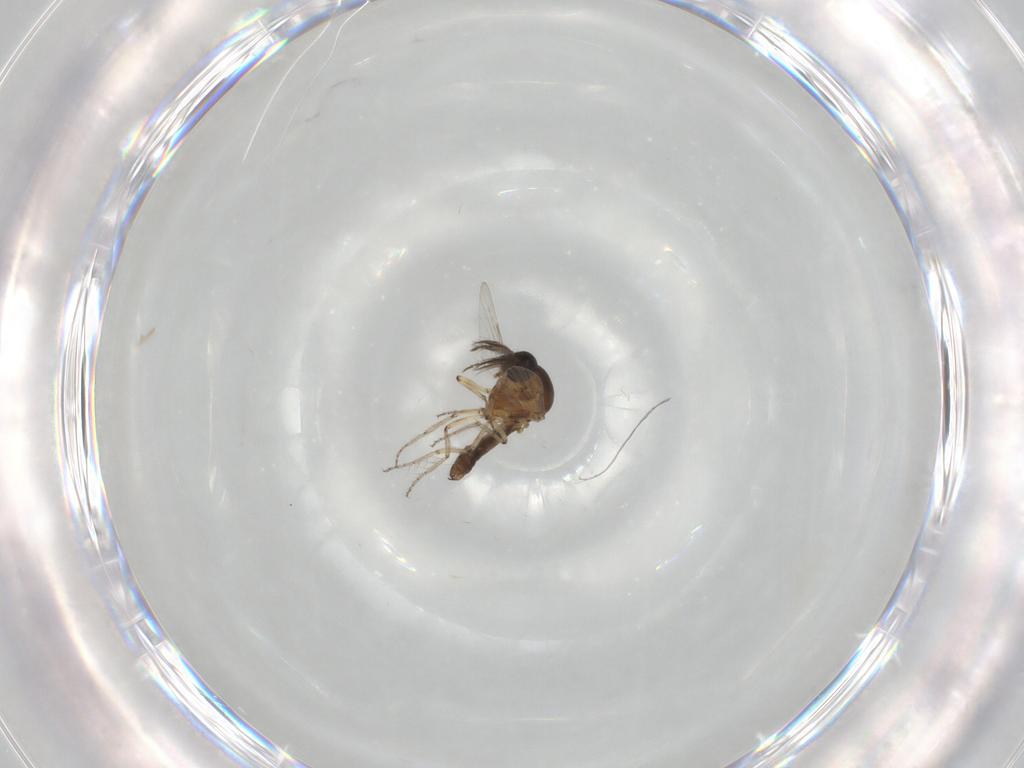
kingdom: Animalia
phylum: Arthropoda
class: Insecta
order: Diptera
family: Ceratopogonidae
